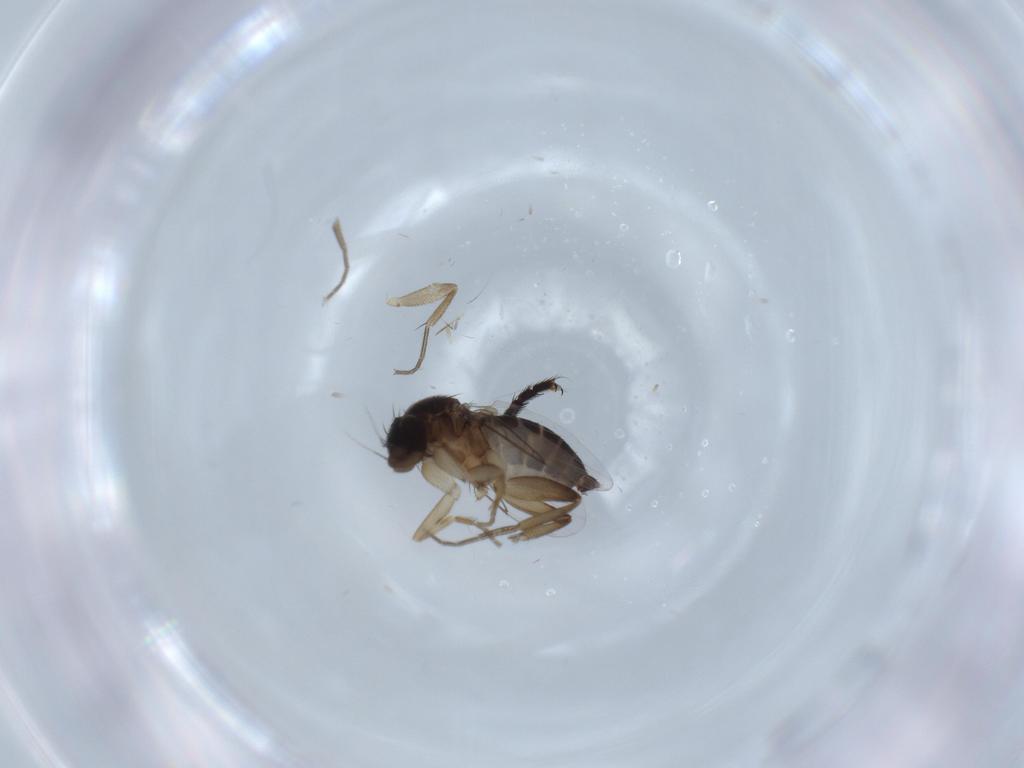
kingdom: Animalia
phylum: Arthropoda
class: Insecta
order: Diptera
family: Phoridae
